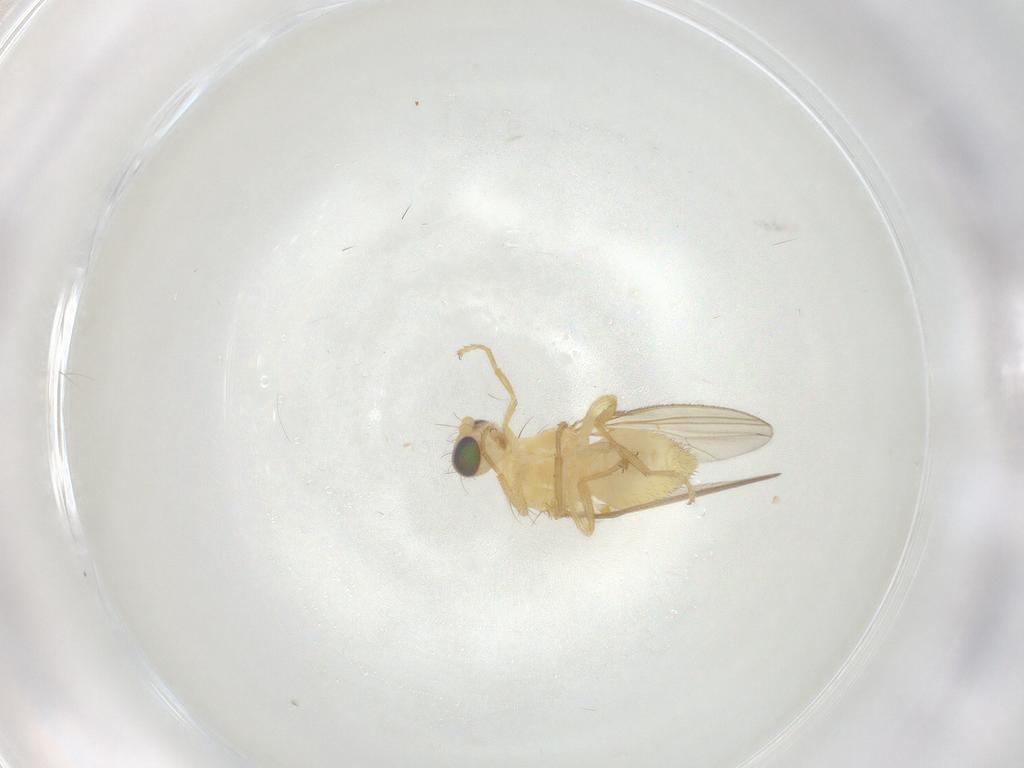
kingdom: Animalia
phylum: Arthropoda
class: Insecta
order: Diptera
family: Chyromyidae
